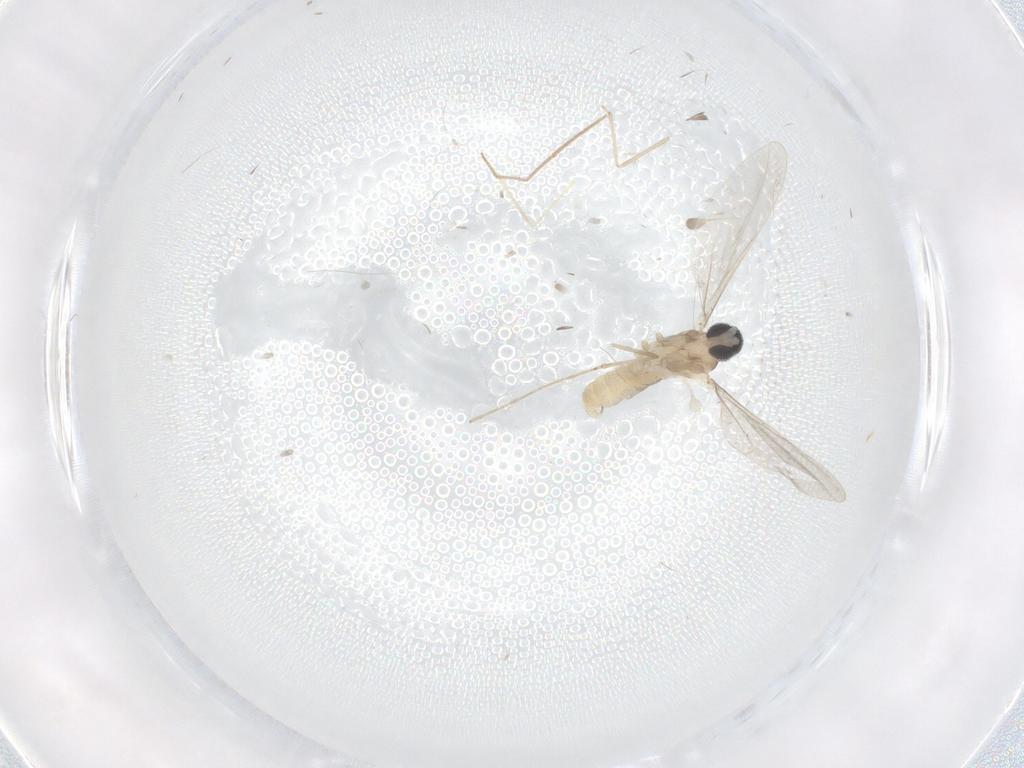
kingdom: Animalia
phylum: Arthropoda
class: Insecta
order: Diptera
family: Cecidomyiidae
